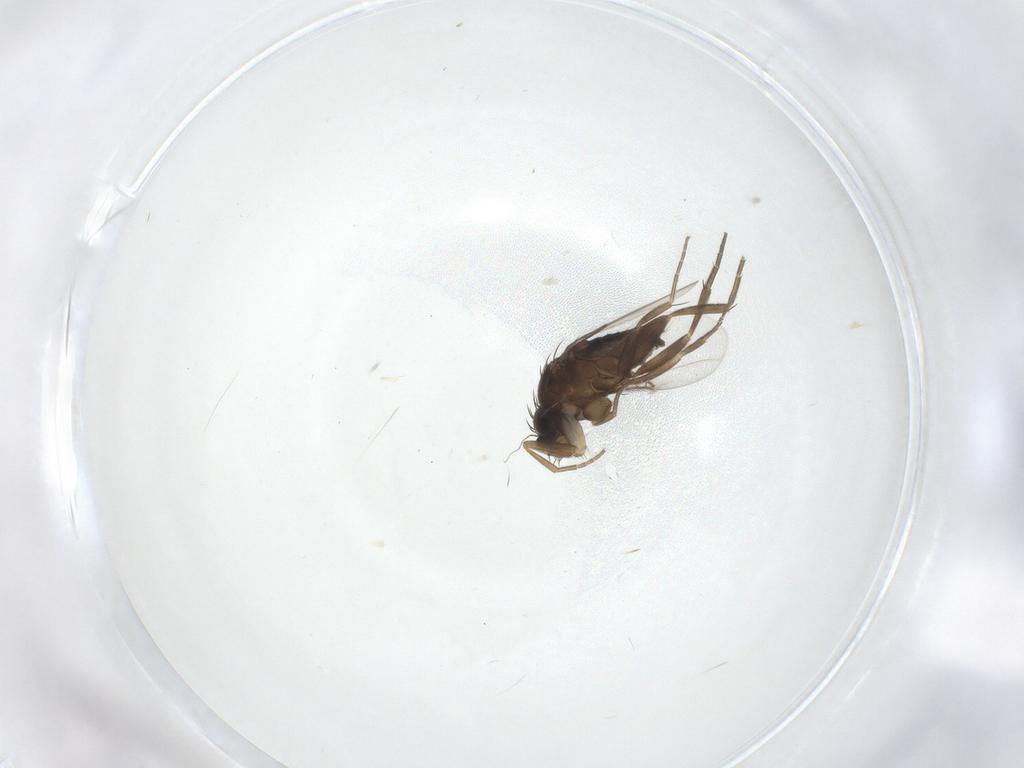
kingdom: Animalia
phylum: Arthropoda
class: Insecta
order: Diptera
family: Phoridae
